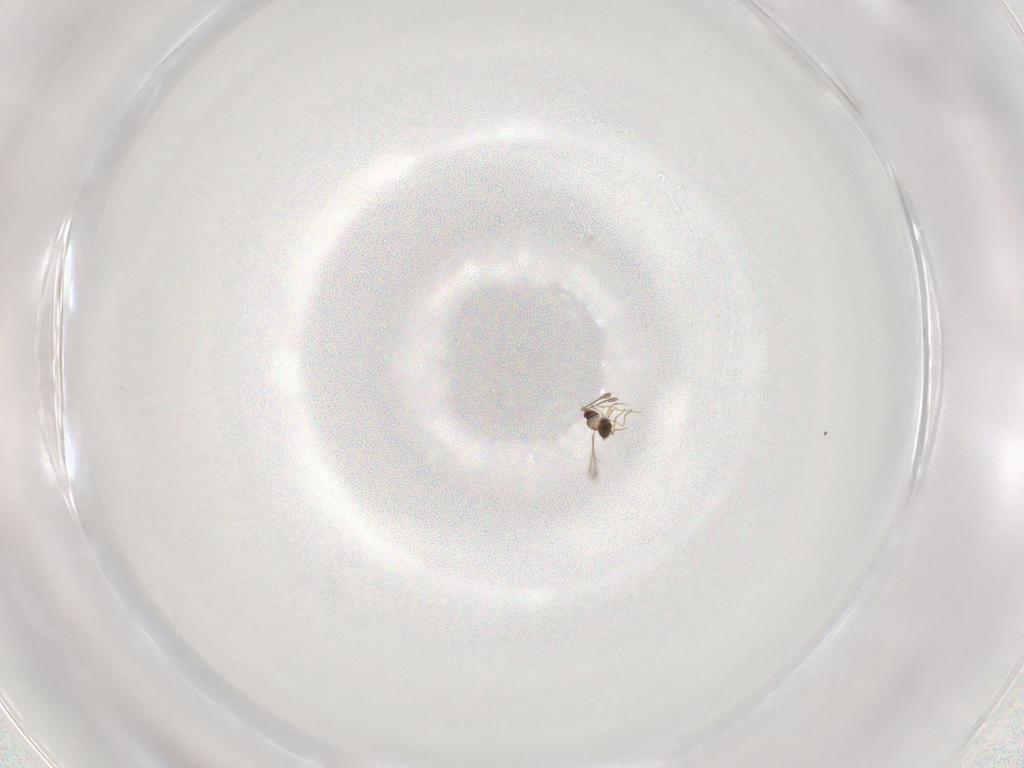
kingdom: Animalia
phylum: Arthropoda
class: Insecta
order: Hymenoptera
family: Mymaridae
